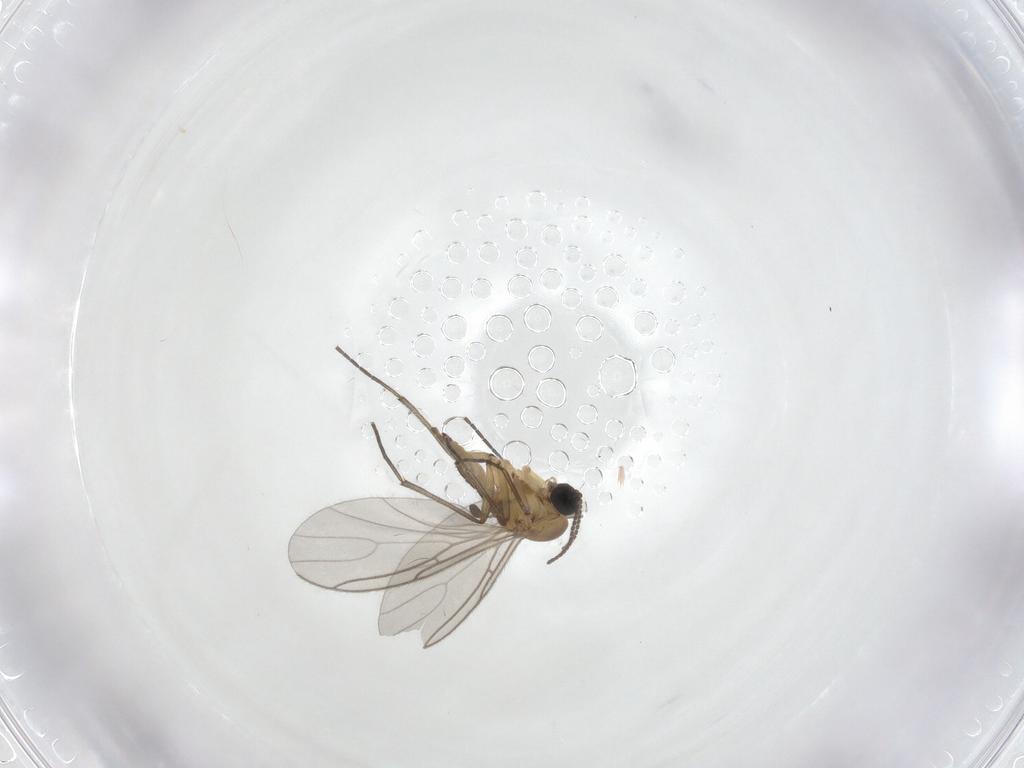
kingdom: Animalia
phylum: Arthropoda
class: Insecta
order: Diptera
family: Sciaridae
